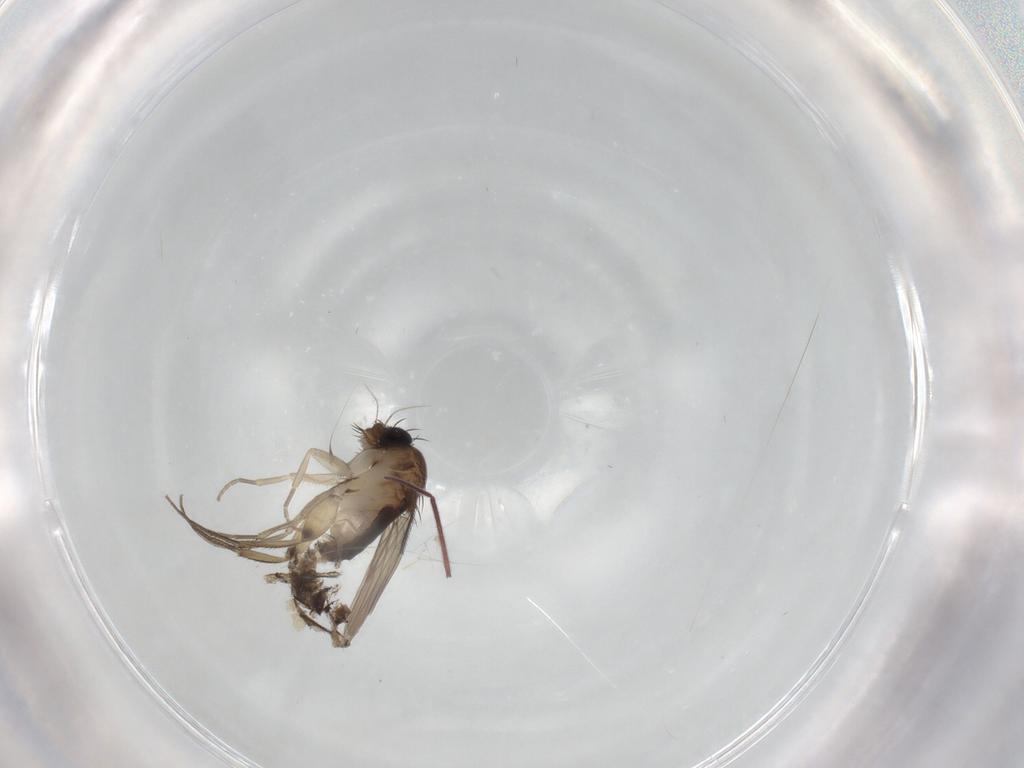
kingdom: Animalia
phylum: Arthropoda
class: Insecta
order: Diptera
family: Phoridae
